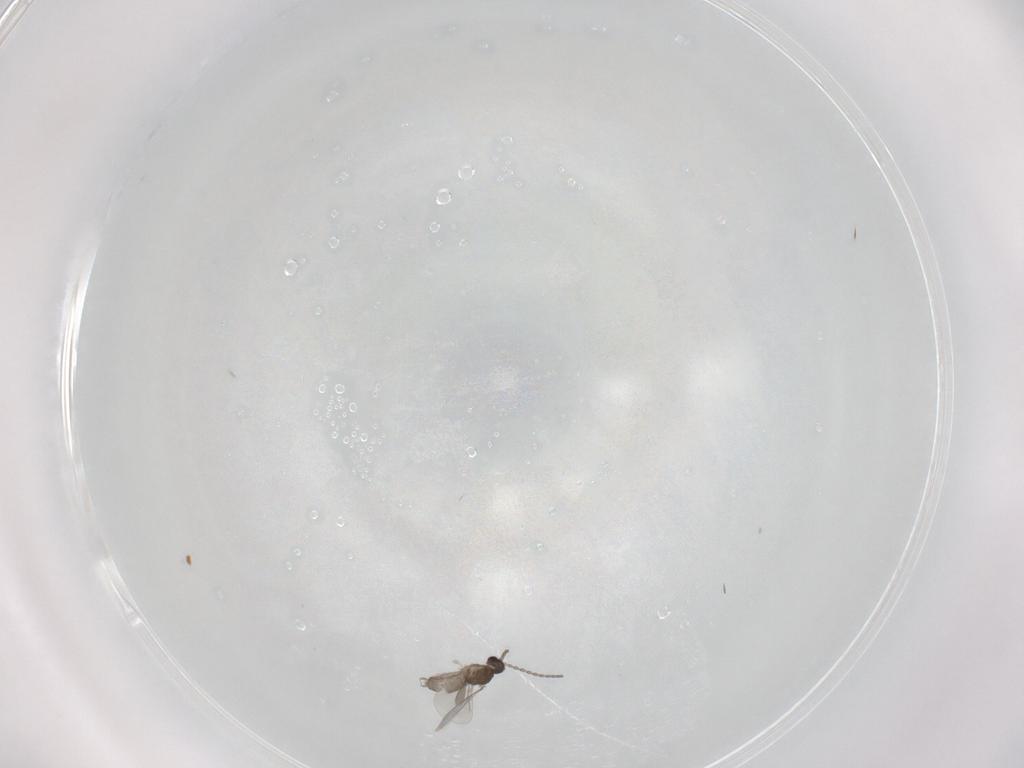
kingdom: Animalia
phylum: Arthropoda
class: Insecta
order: Diptera
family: Cecidomyiidae
